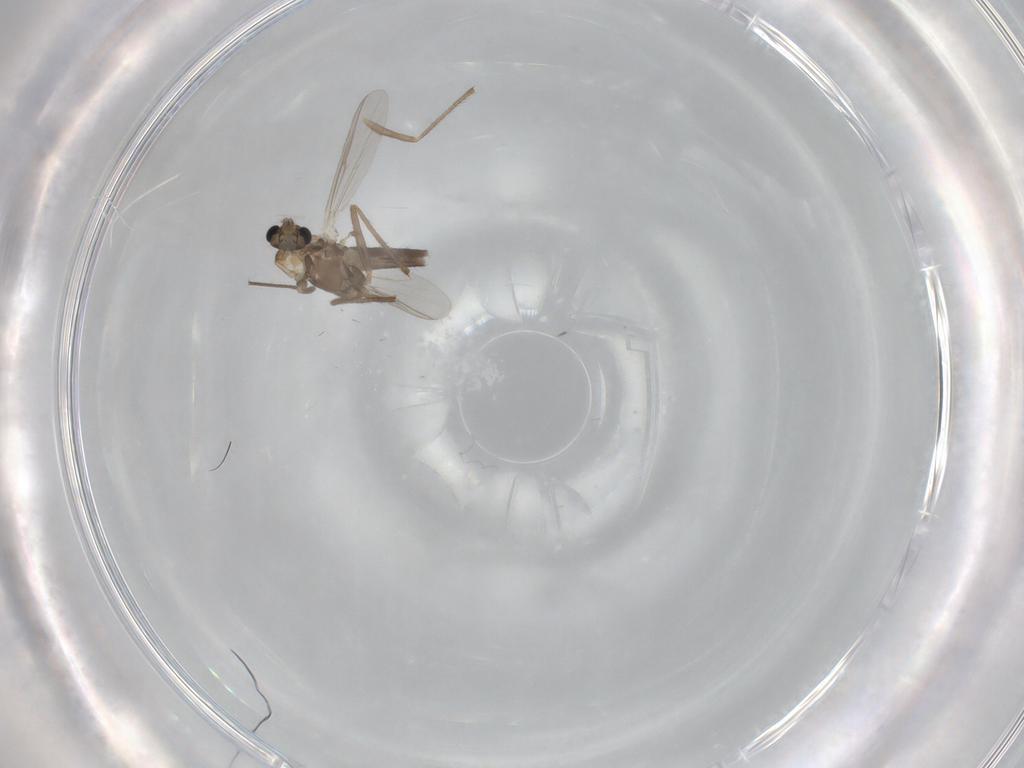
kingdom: Animalia
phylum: Arthropoda
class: Insecta
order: Diptera
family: Chironomidae
